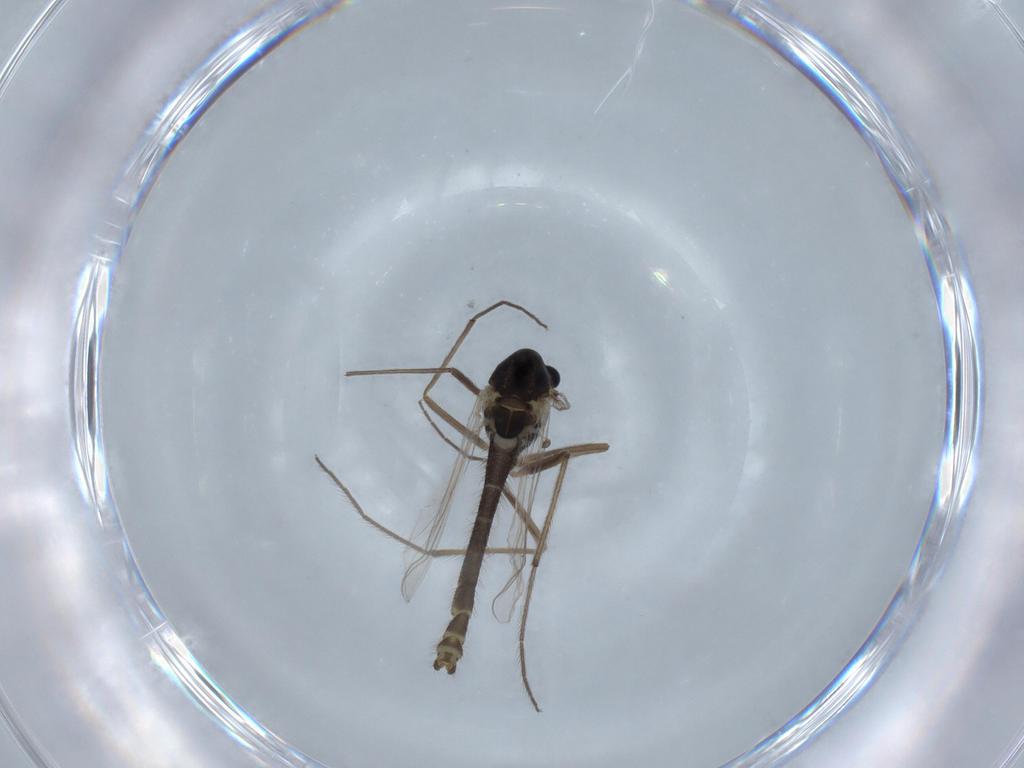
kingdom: Animalia
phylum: Arthropoda
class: Insecta
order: Diptera
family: Chironomidae
